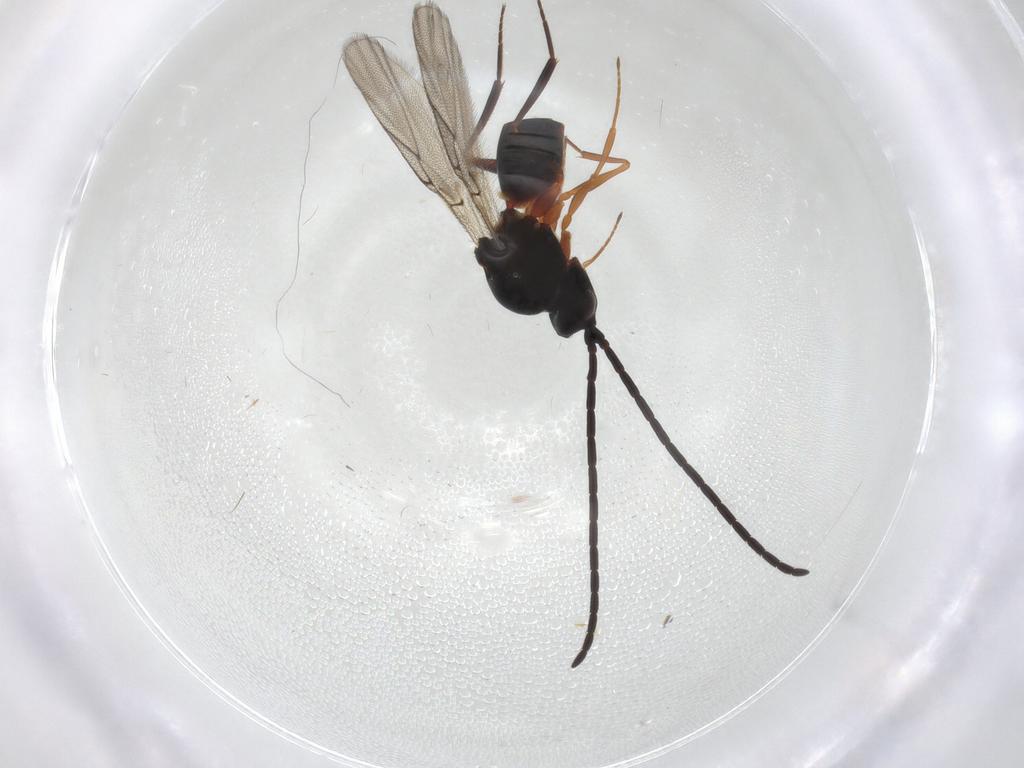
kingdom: Animalia
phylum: Arthropoda
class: Insecta
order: Hymenoptera
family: Figitidae
